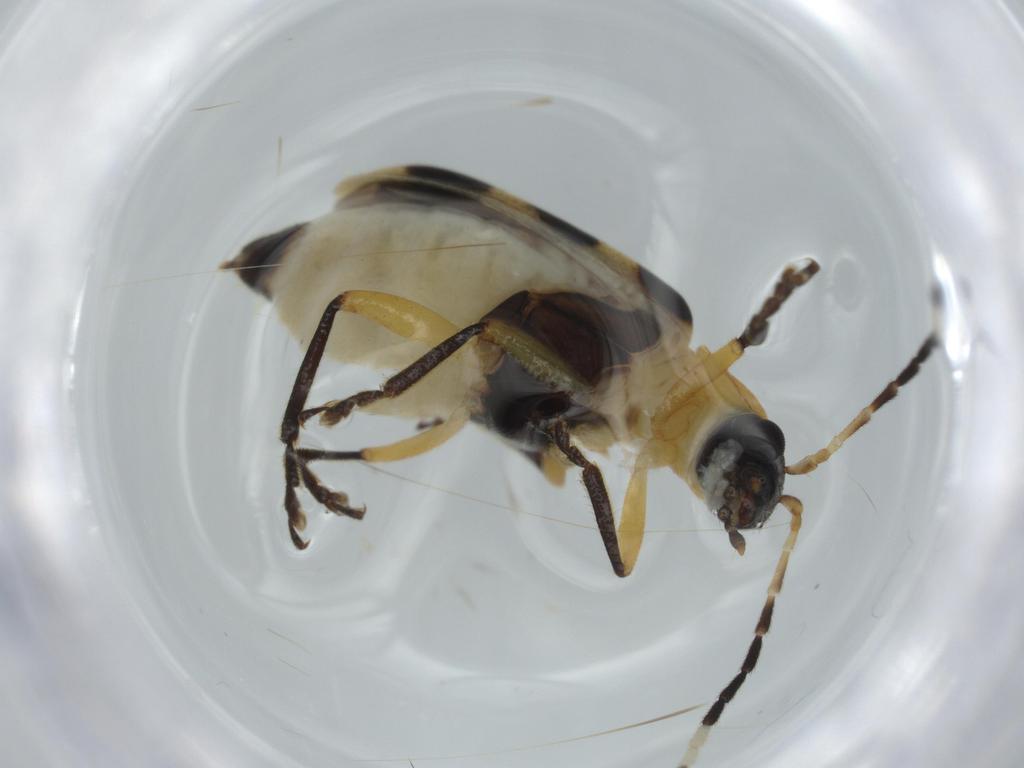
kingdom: Animalia
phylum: Arthropoda
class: Insecta
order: Coleoptera
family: Chrysomelidae
